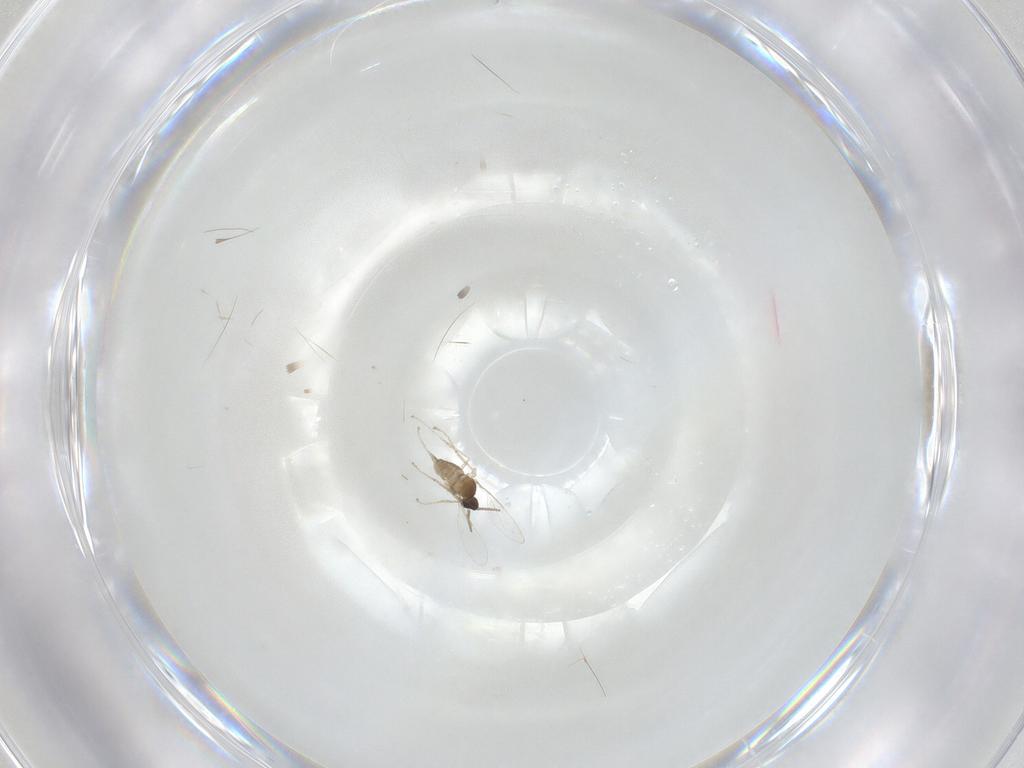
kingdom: Animalia
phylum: Arthropoda
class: Insecta
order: Diptera
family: Cecidomyiidae
